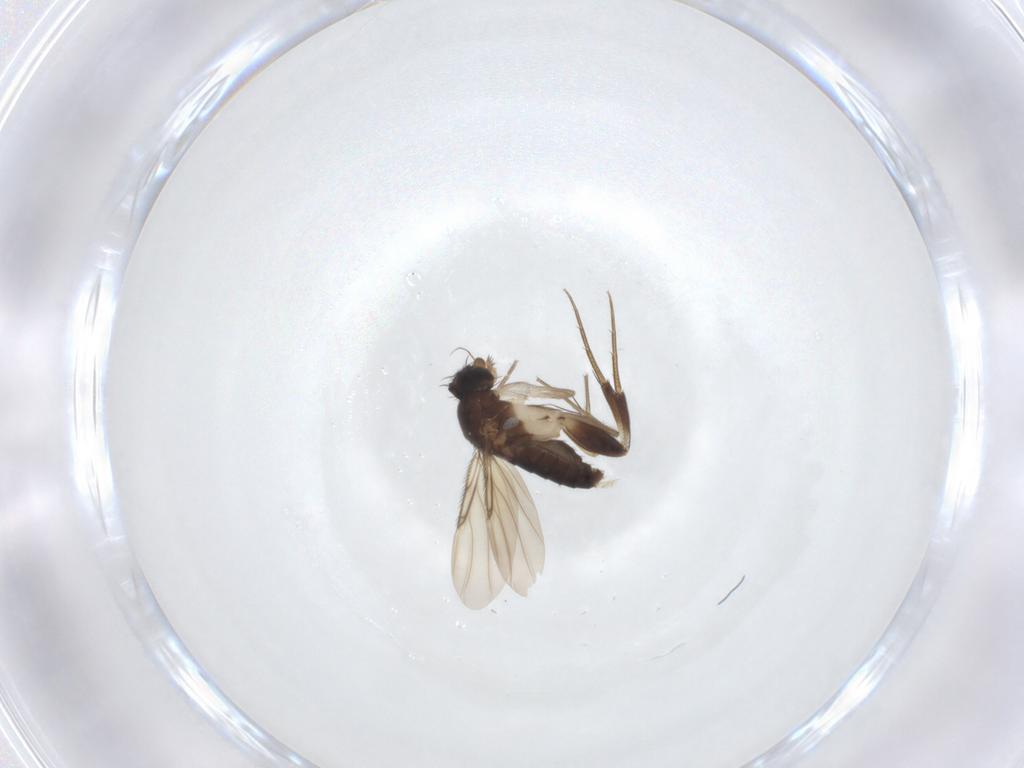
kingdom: Animalia
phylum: Arthropoda
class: Insecta
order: Diptera
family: Phoridae
